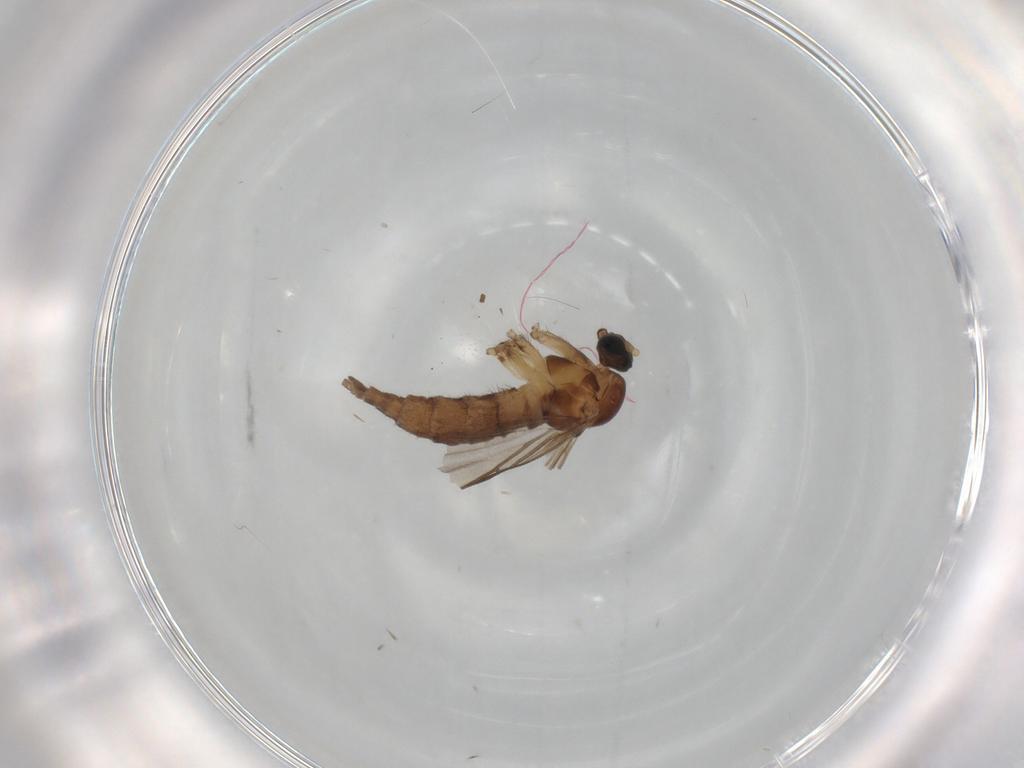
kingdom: Animalia
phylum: Arthropoda
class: Insecta
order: Diptera
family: Sciaridae
